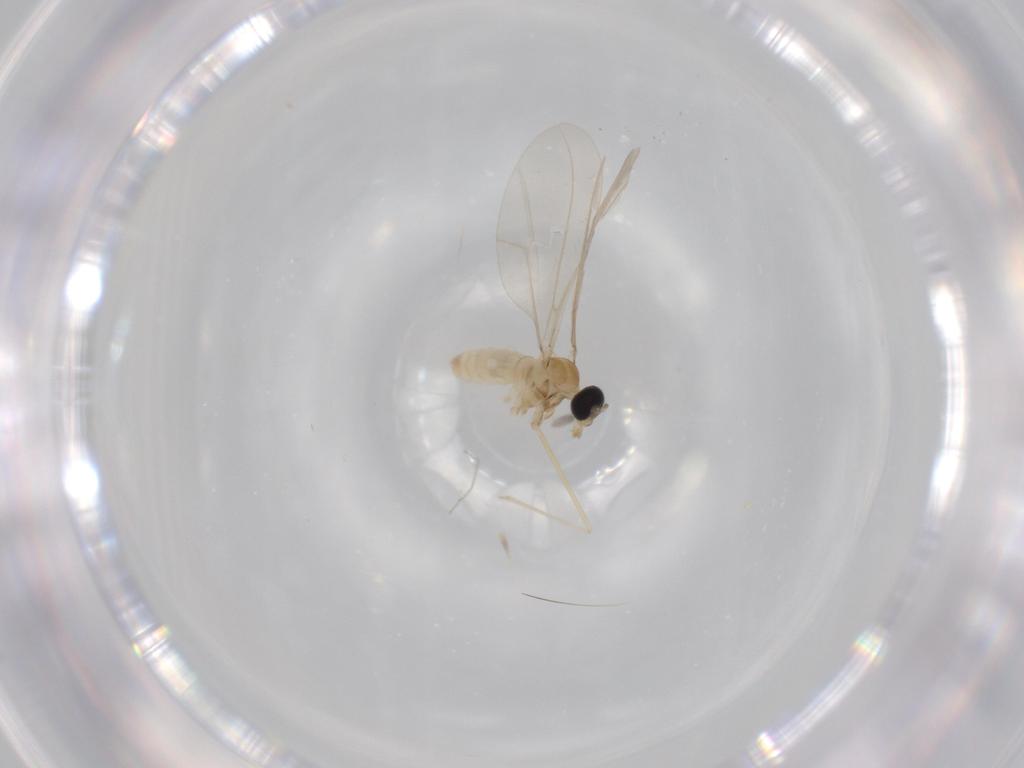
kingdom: Animalia
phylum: Arthropoda
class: Insecta
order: Diptera
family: Cecidomyiidae
